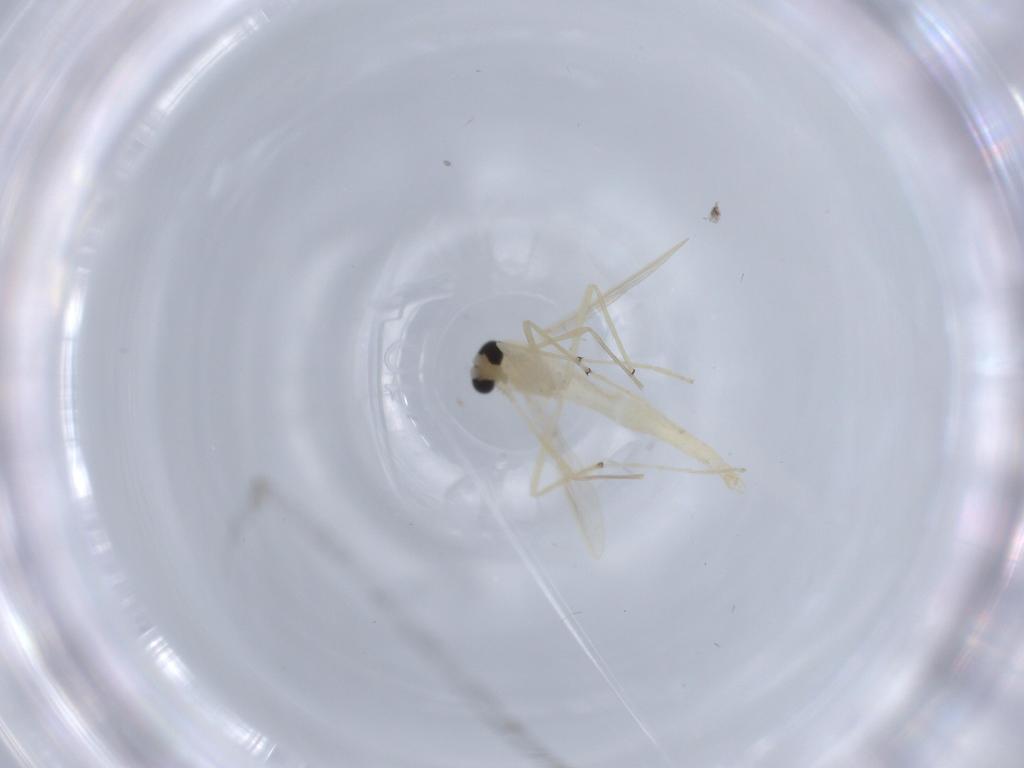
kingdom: Animalia
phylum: Arthropoda
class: Insecta
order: Diptera
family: Chironomidae
